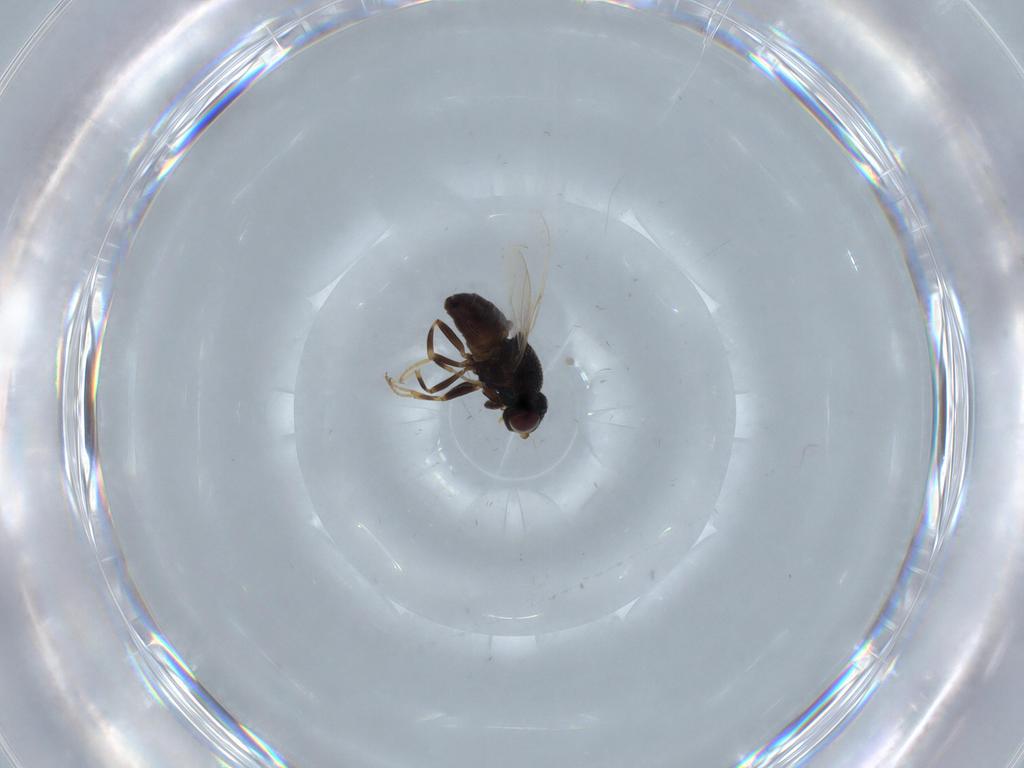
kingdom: Animalia
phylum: Arthropoda
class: Insecta
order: Diptera
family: Chloropidae
